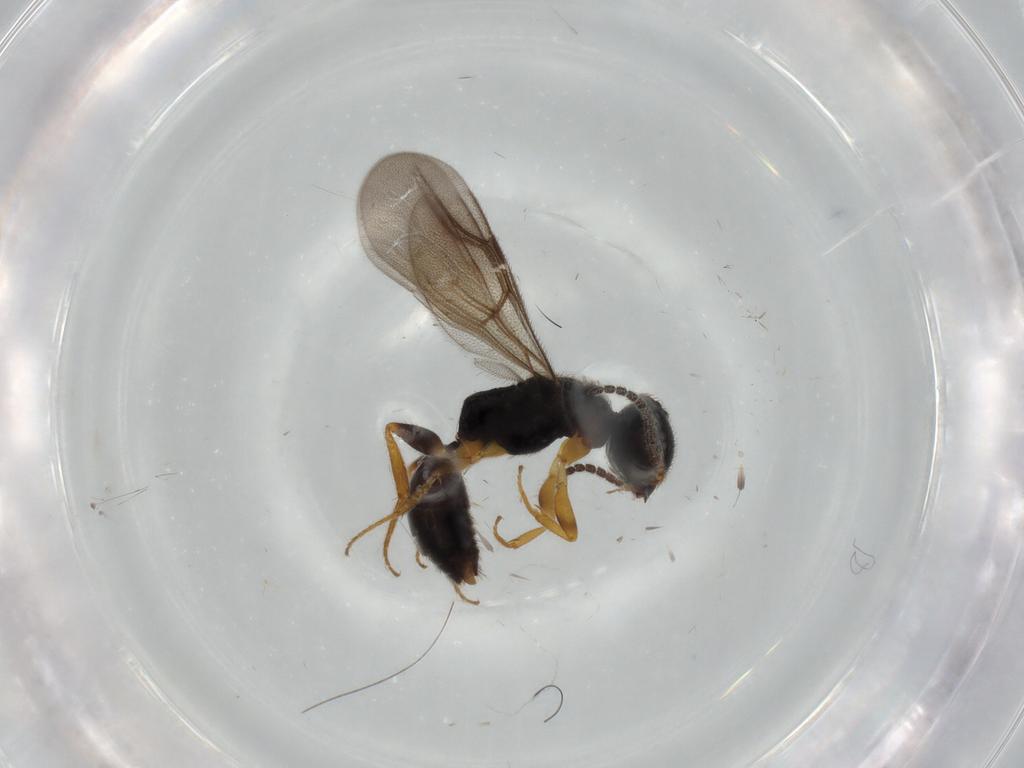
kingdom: Animalia
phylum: Arthropoda
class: Insecta
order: Hymenoptera
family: Bethylidae
